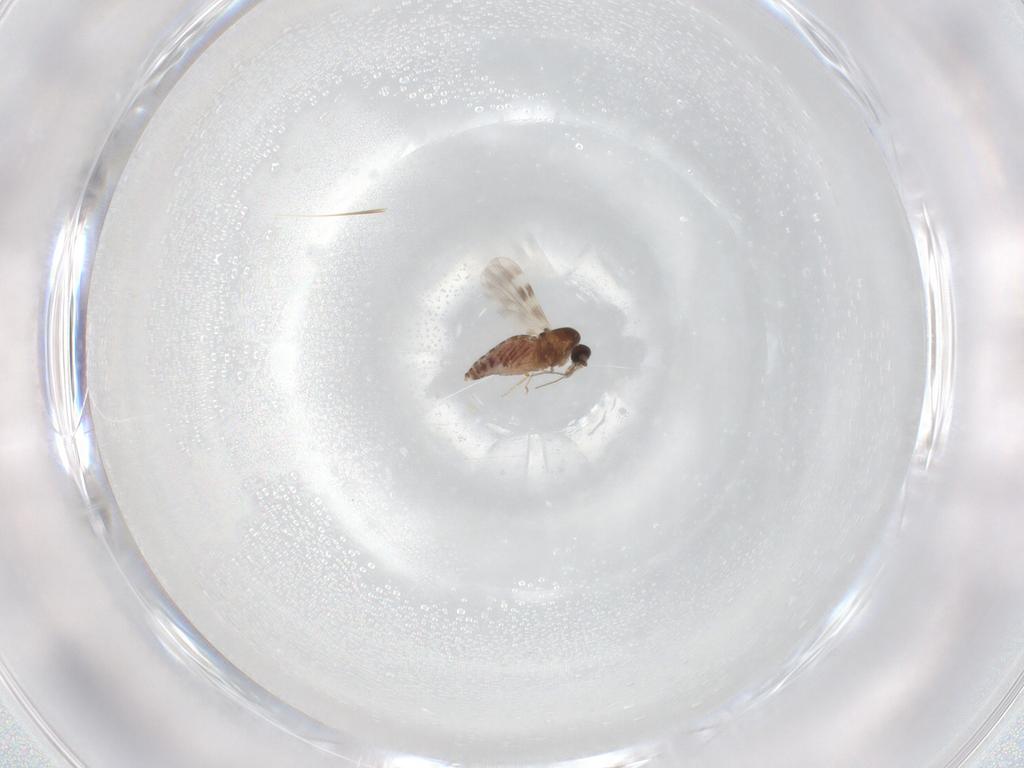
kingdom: Animalia
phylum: Arthropoda
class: Insecta
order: Diptera
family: Ceratopogonidae
